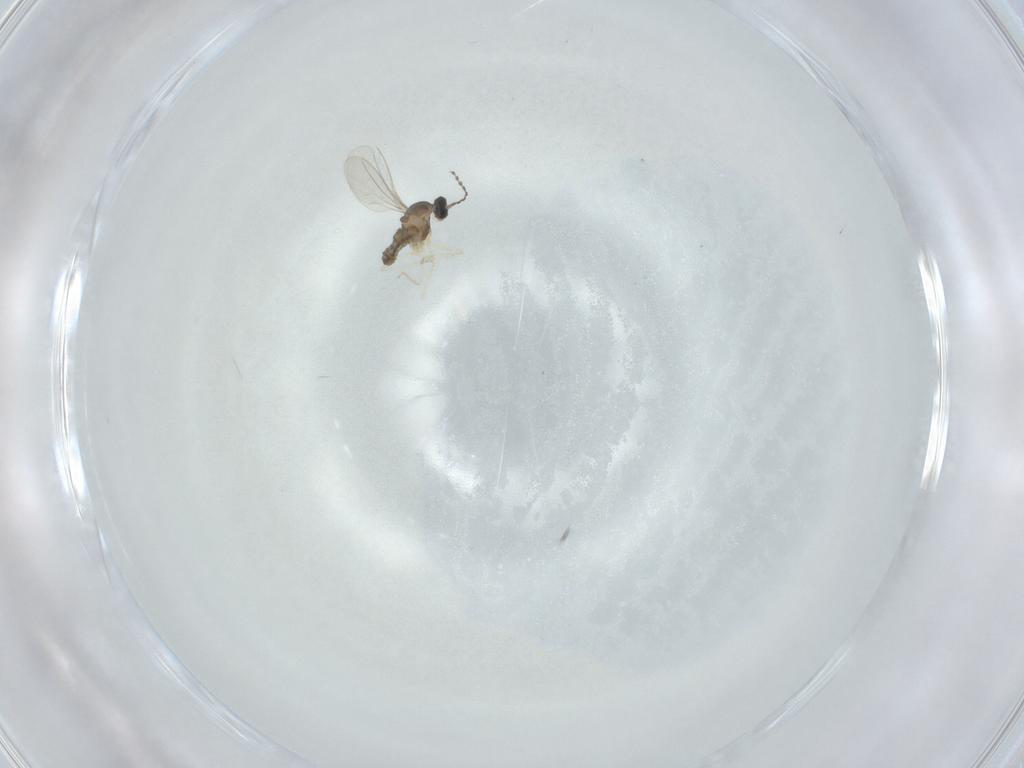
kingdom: Animalia
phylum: Arthropoda
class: Insecta
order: Diptera
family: Cecidomyiidae
